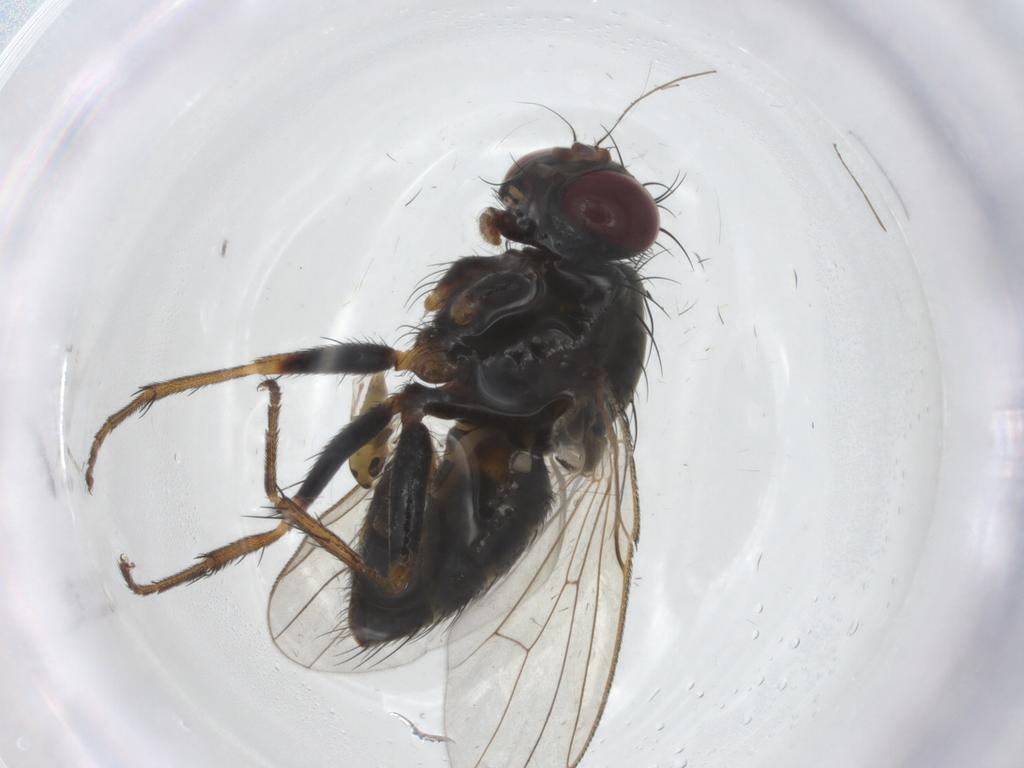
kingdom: Animalia
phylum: Arthropoda
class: Insecta
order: Diptera
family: Chironomidae
